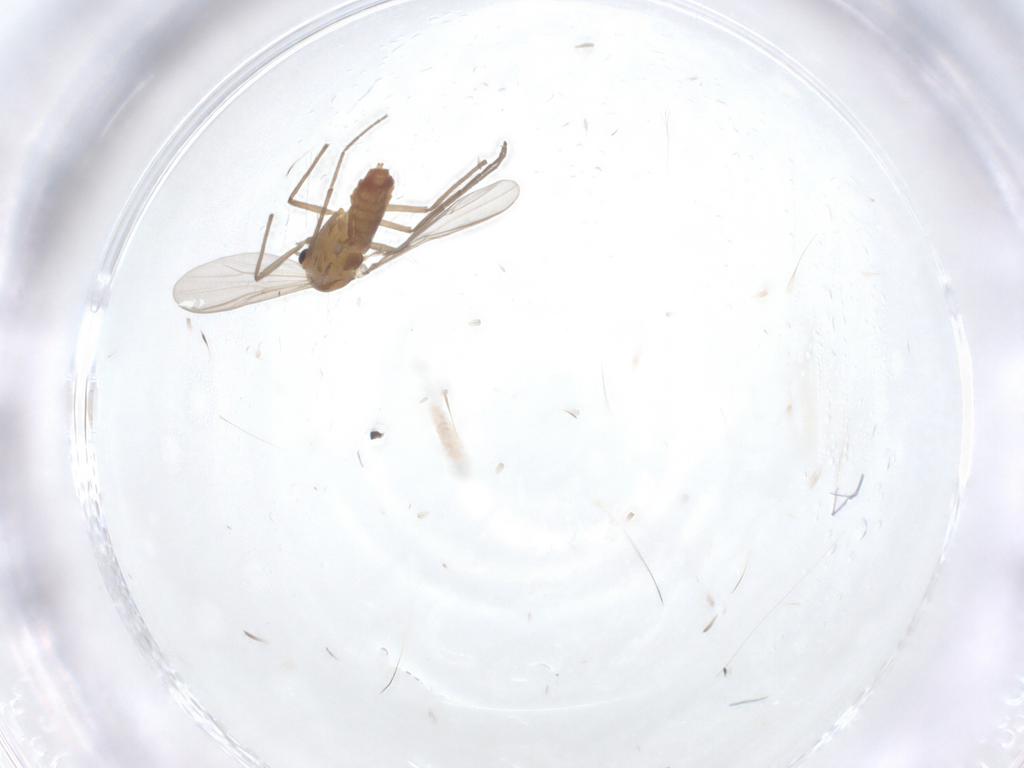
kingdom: Animalia
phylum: Arthropoda
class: Insecta
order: Diptera
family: Chironomidae
